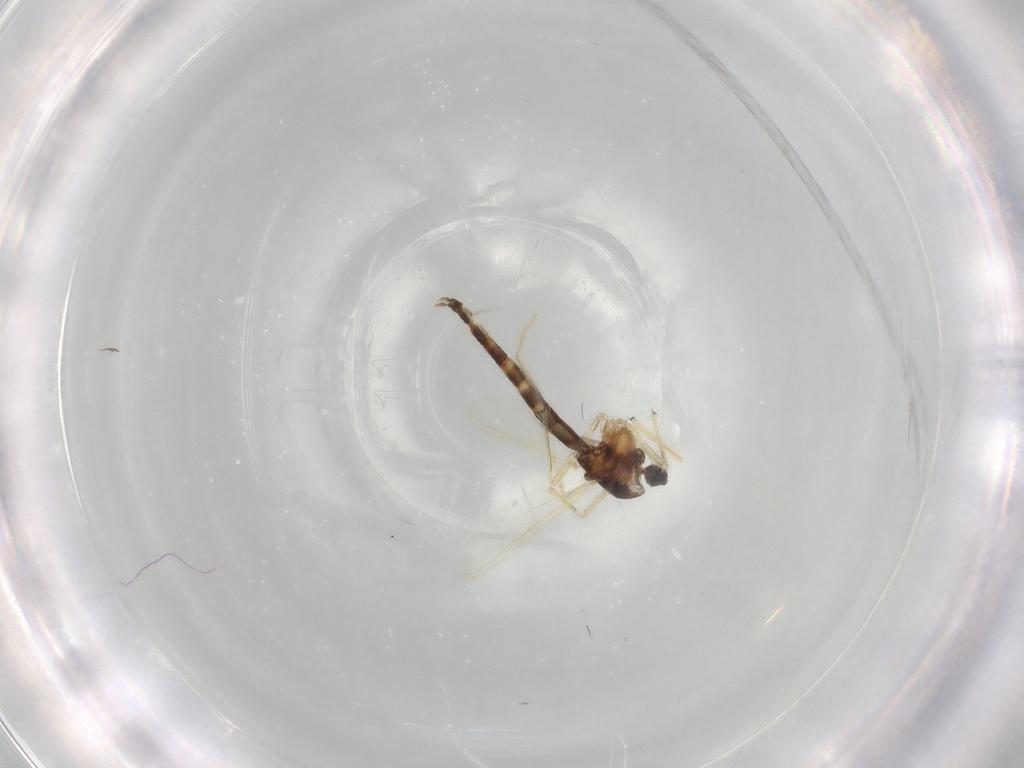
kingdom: Animalia
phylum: Arthropoda
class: Insecta
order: Diptera
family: Chironomidae
